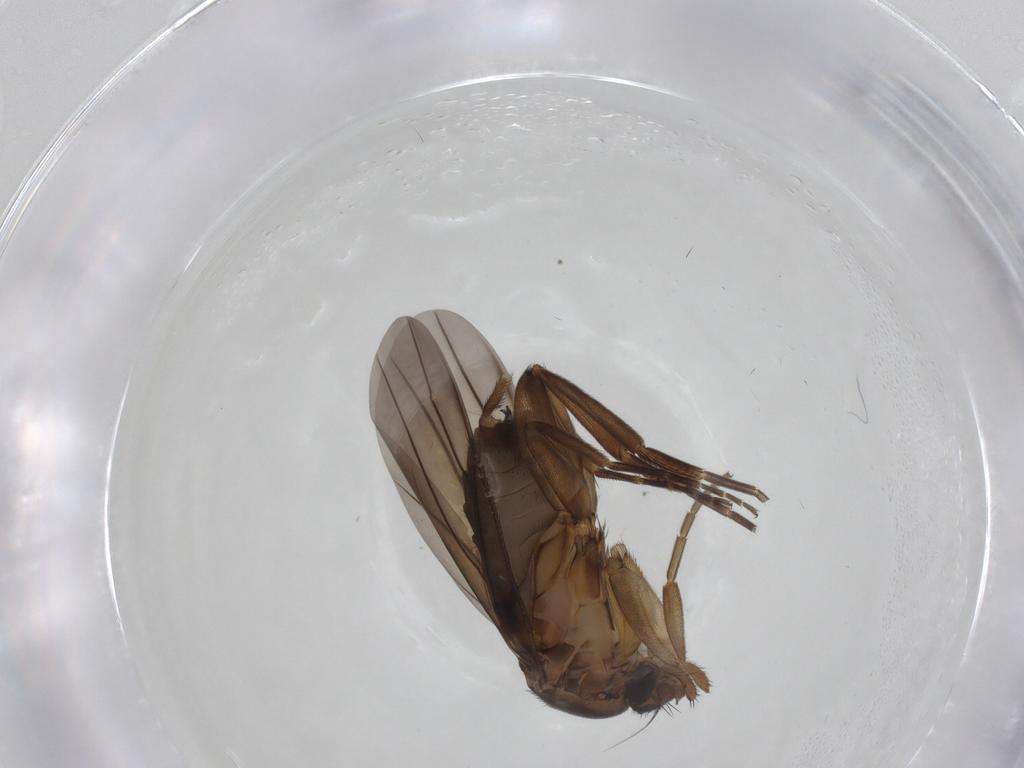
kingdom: Animalia
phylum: Arthropoda
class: Insecta
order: Diptera
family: Phoridae
